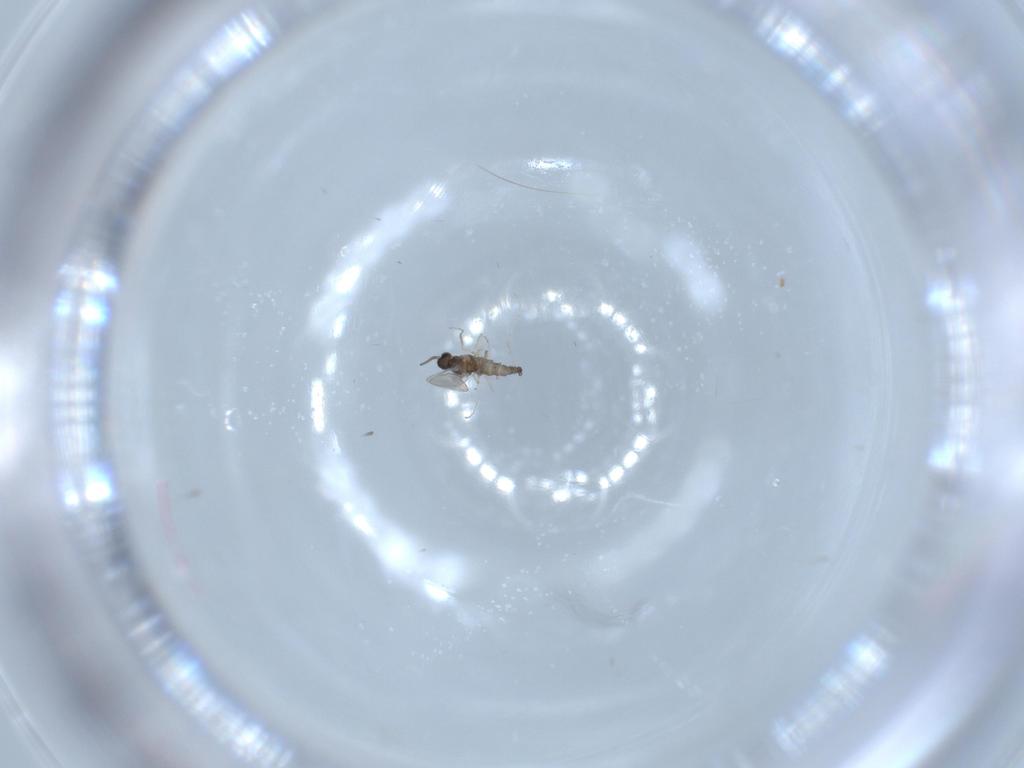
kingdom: Animalia
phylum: Arthropoda
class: Insecta
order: Diptera
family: Cecidomyiidae
